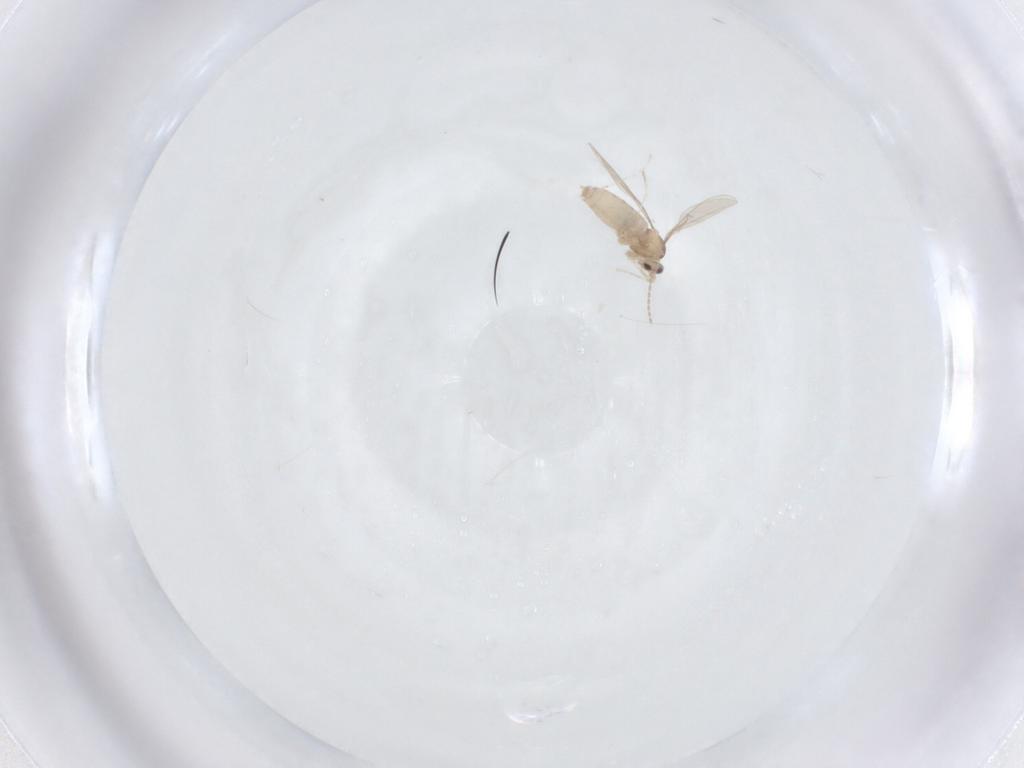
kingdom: Animalia
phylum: Arthropoda
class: Insecta
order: Diptera
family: Cecidomyiidae
